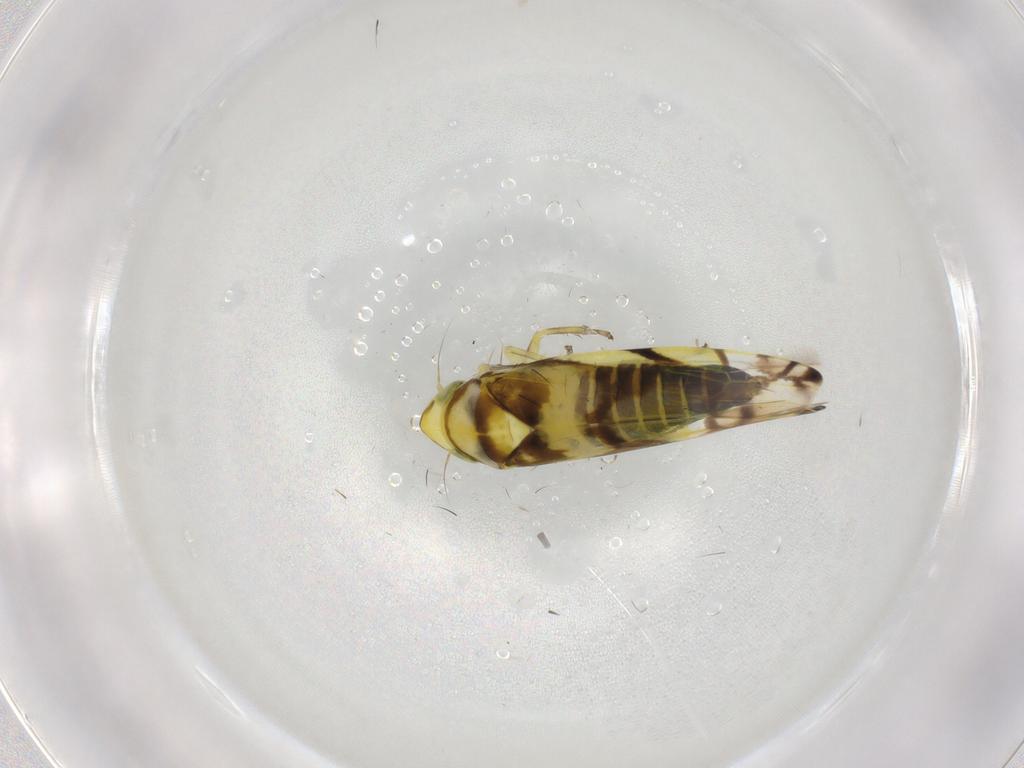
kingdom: Animalia
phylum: Arthropoda
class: Insecta
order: Hemiptera
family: Cicadellidae
